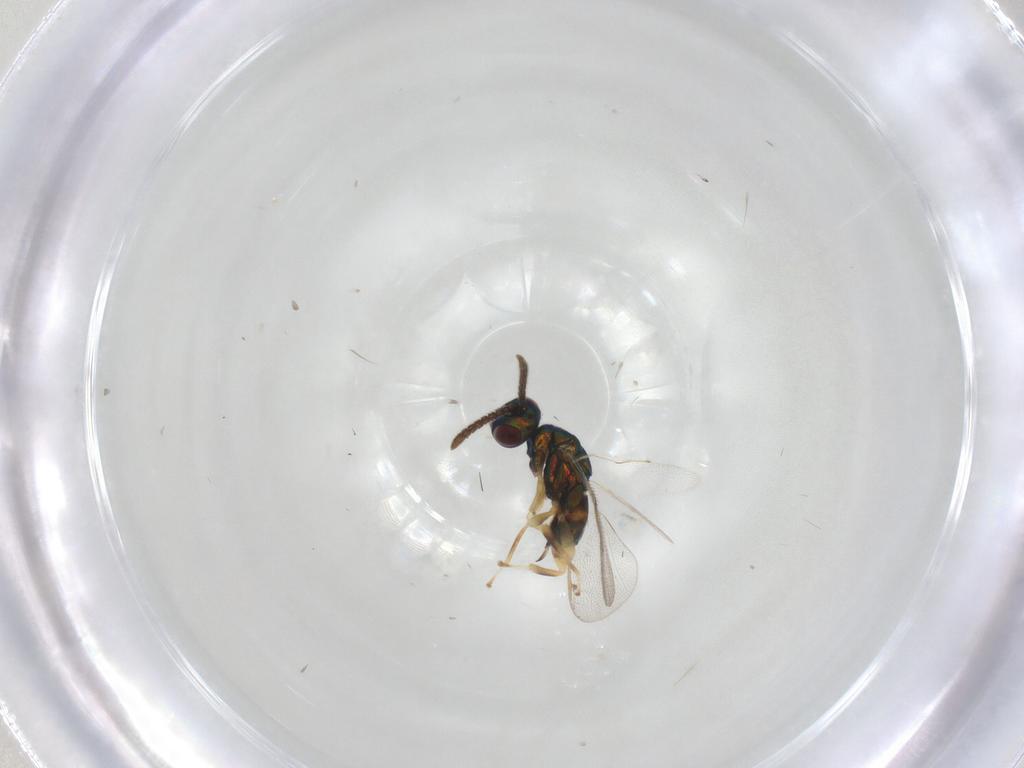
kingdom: Animalia
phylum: Arthropoda
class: Insecta
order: Hymenoptera
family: Torymidae
